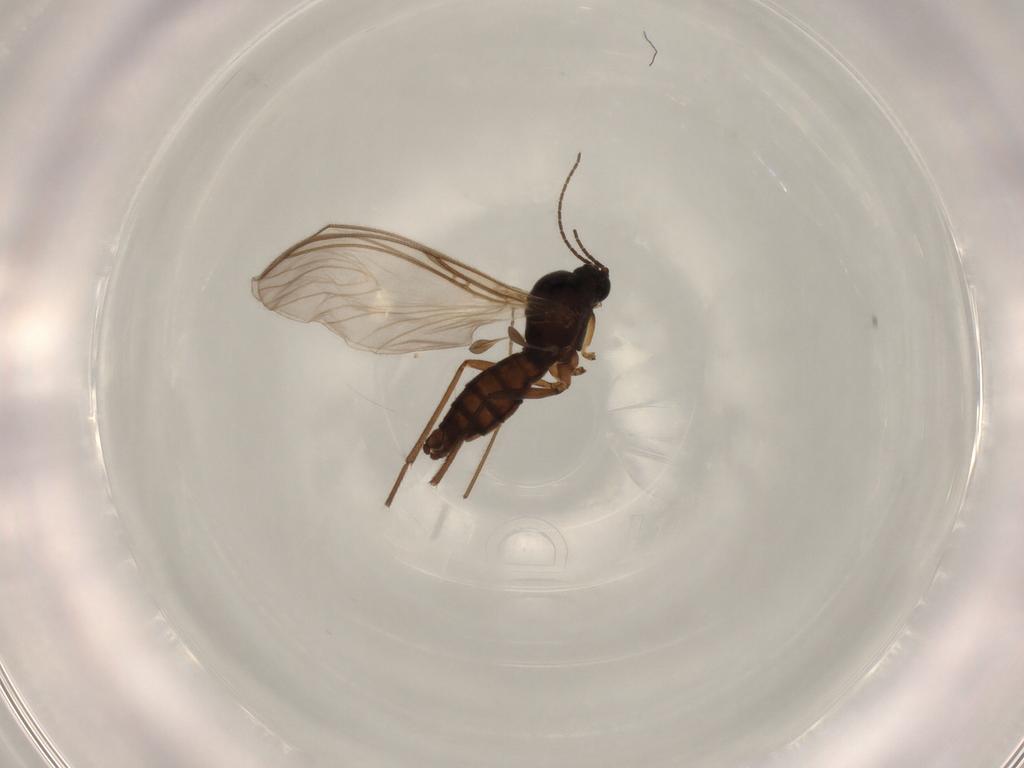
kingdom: Animalia
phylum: Arthropoda
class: Insecta
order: Diptera
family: Chironomidae
